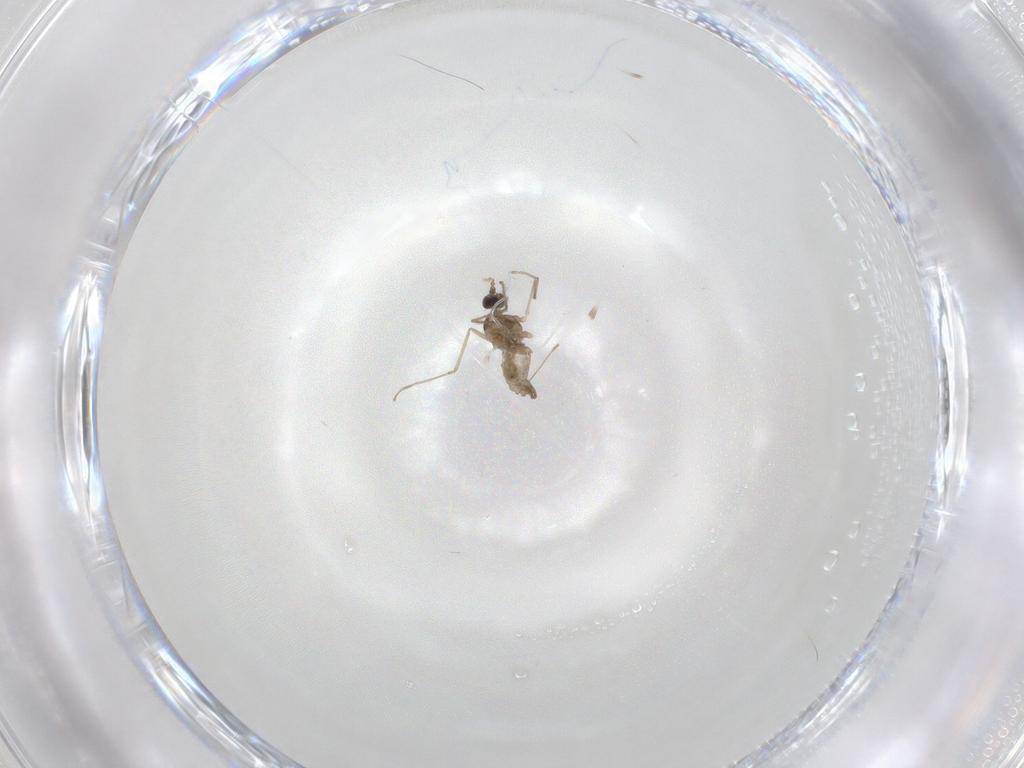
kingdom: Animalia
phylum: Arthropoda
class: Insecta
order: Diptera
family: Cecidomyiidae
